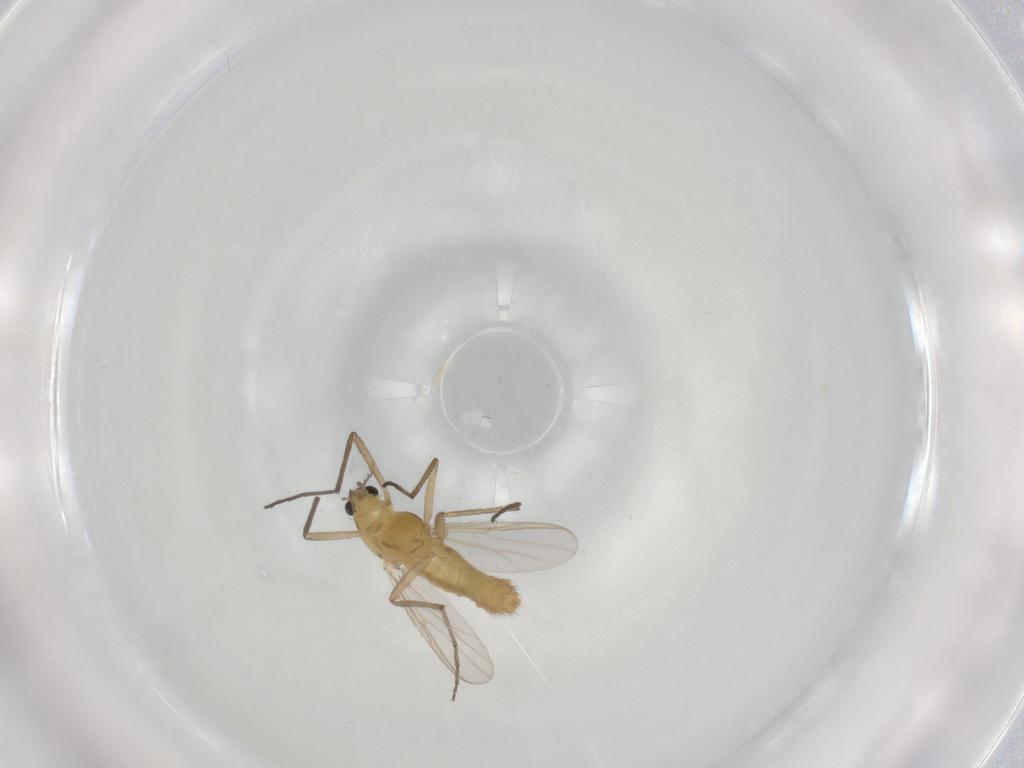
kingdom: Animalia
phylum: Arthropoda
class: Insecta
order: Diptera
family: Chironomidae
